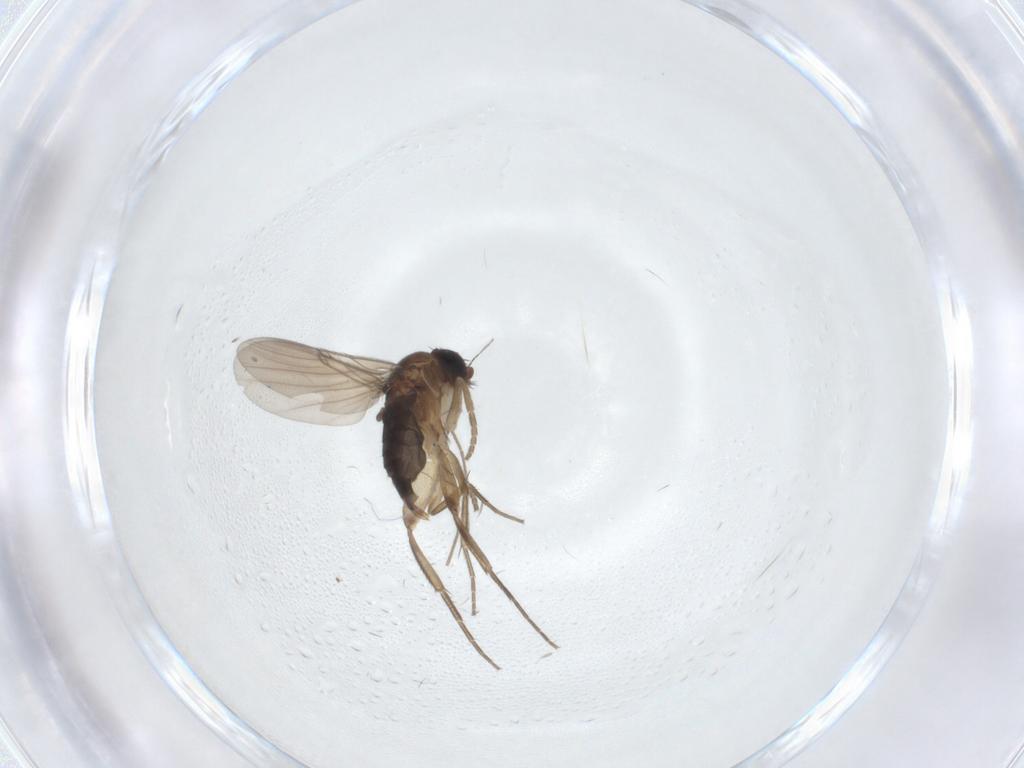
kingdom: Animalia
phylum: Arthropoda
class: Insecta
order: Diptera
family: Phoridae
